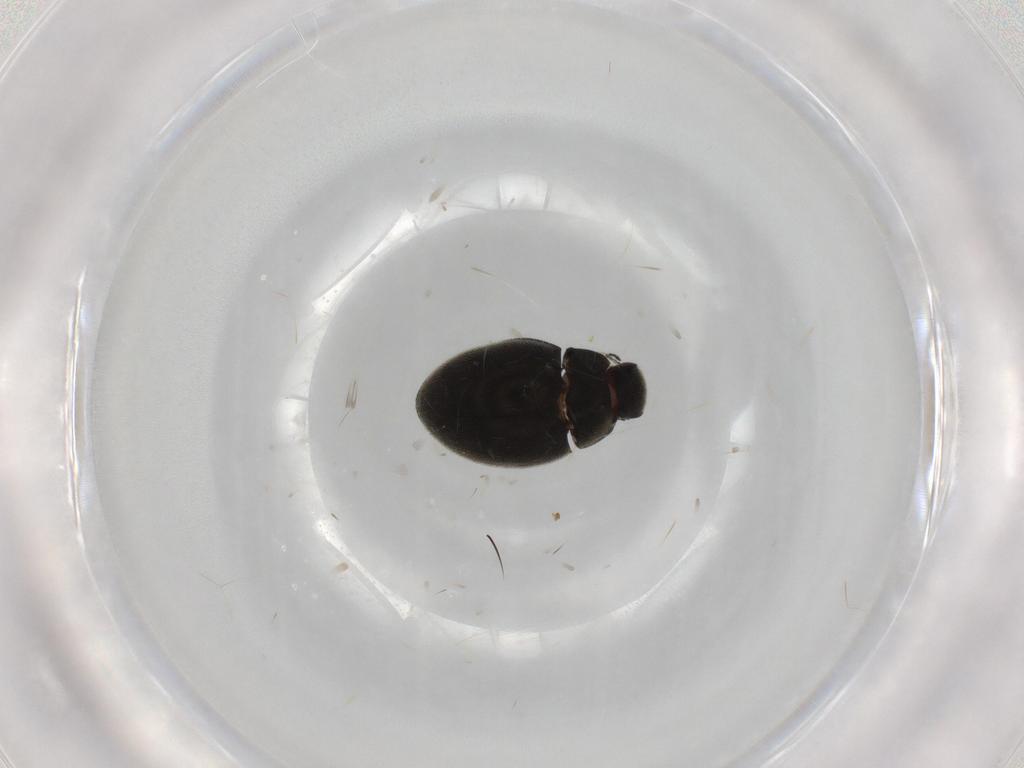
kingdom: Animalia
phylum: Arthropoda
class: Insecta
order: Coleoptera
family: Limnichidae
